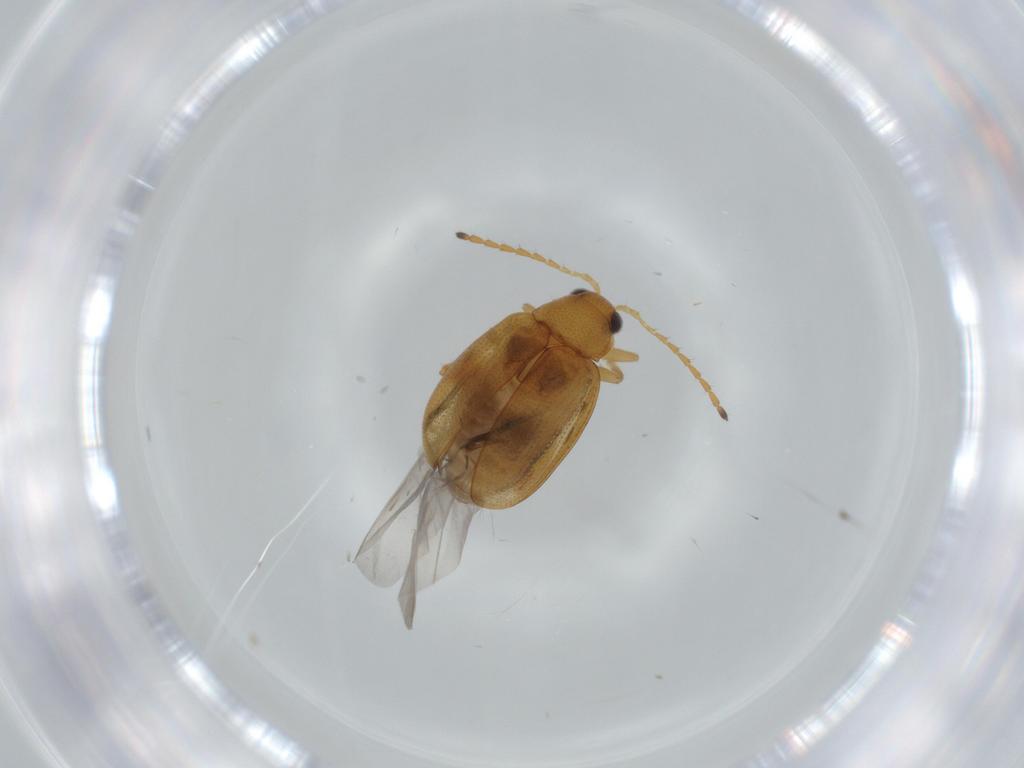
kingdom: Animalia
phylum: Arthropoda
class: Insecta
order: Coleoptera
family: Chrysomelidae
